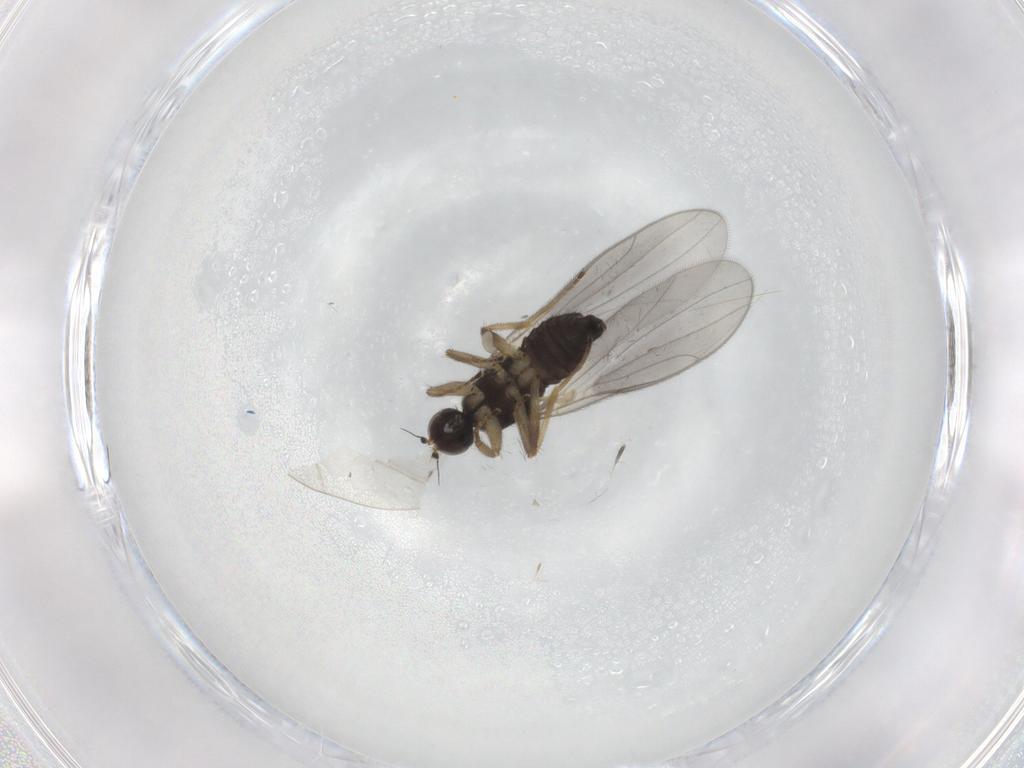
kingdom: Animalia
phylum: Arthropoda
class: Insecta
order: Diptera
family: Hybotidae
